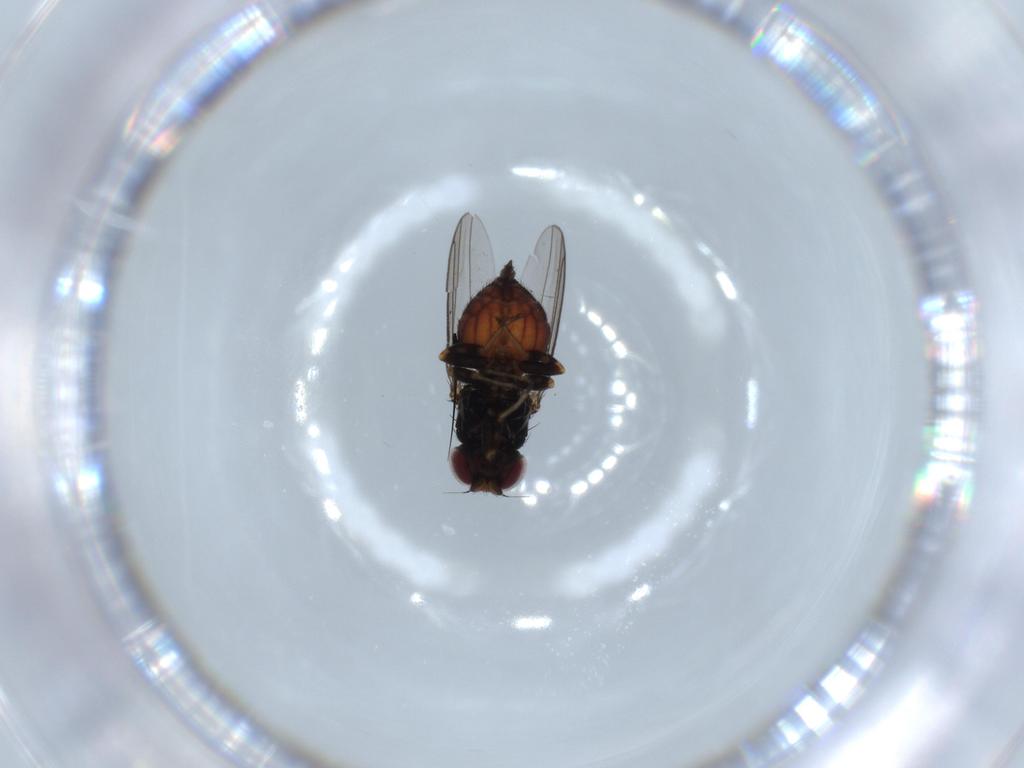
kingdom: Animalia
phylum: Arthropoda
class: Insecta
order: Diptera
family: Chloropidae
